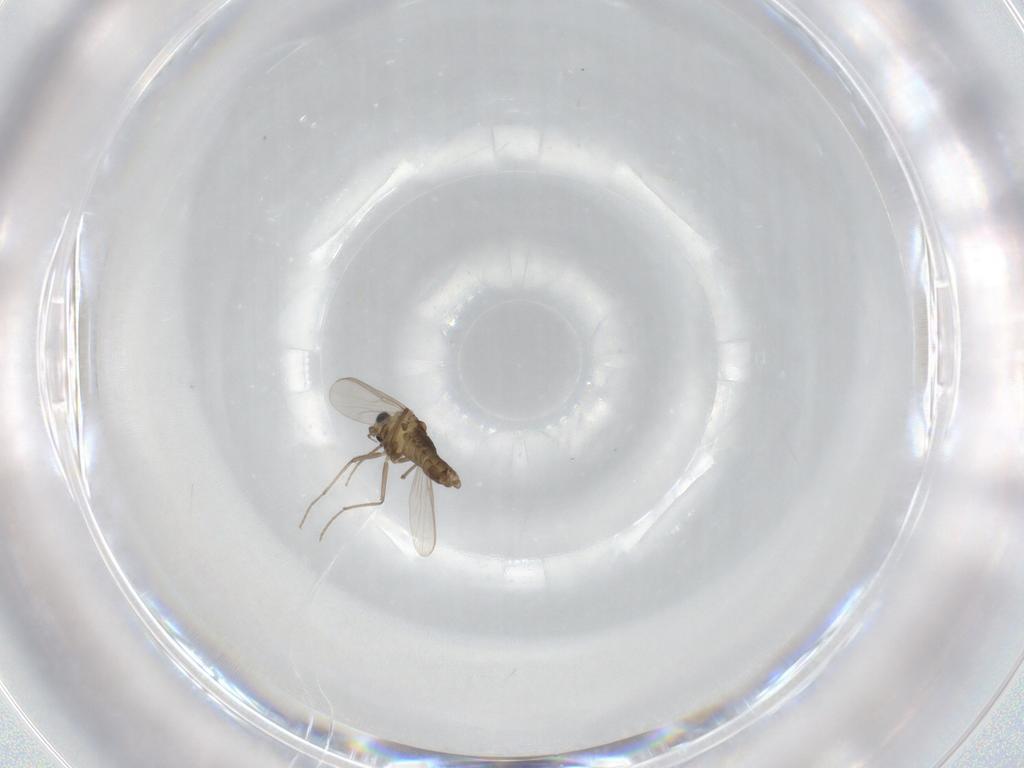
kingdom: Animalia
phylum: Arthropoda
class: Insecta
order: Diptera
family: Chironomidae
